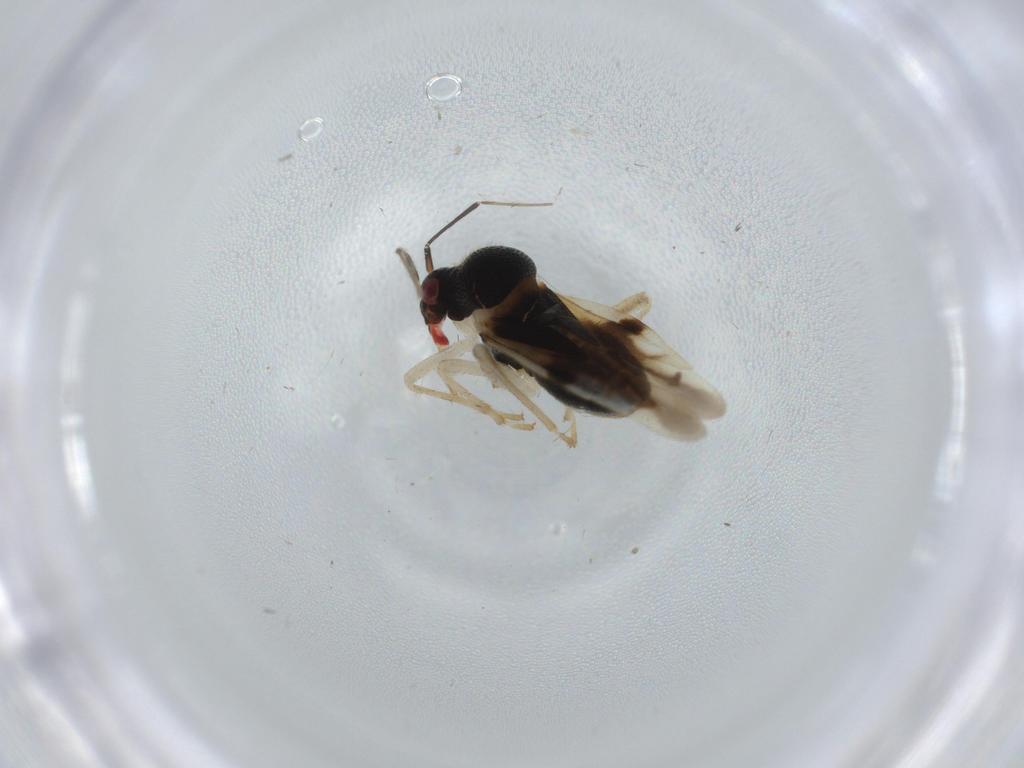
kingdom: Animalia
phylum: Arthropoda
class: Insecta
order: Hemiptera
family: Miridae
